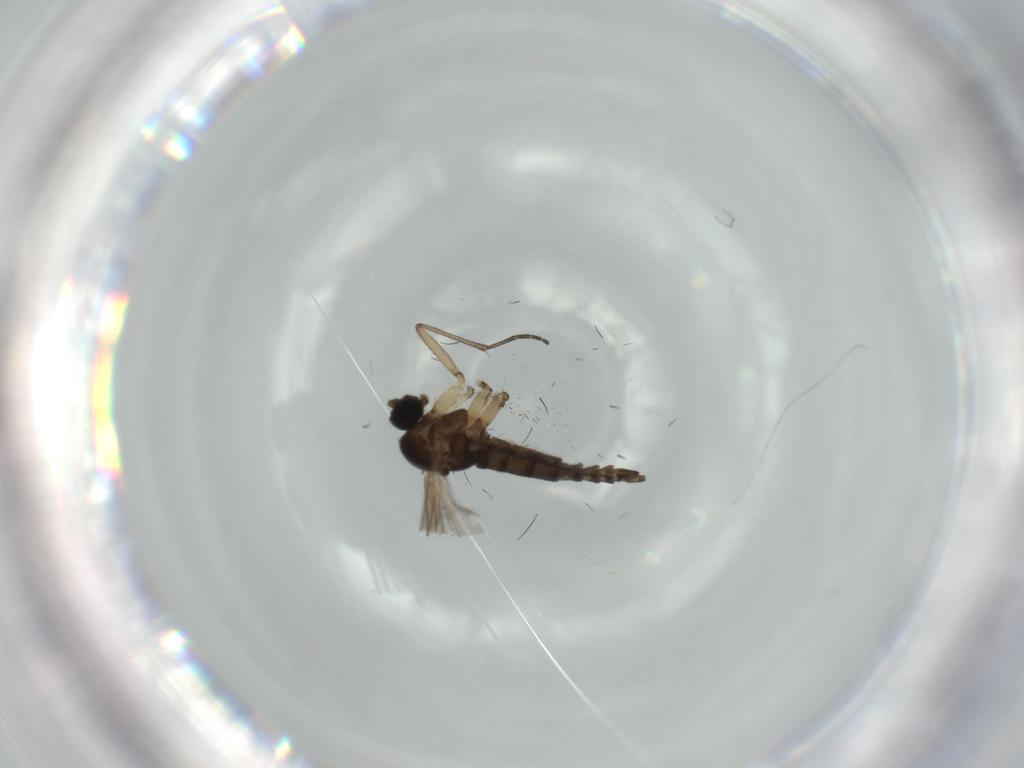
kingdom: Animalia
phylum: Arthropoda
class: Insecta
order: Diptera
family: Sciaridae
